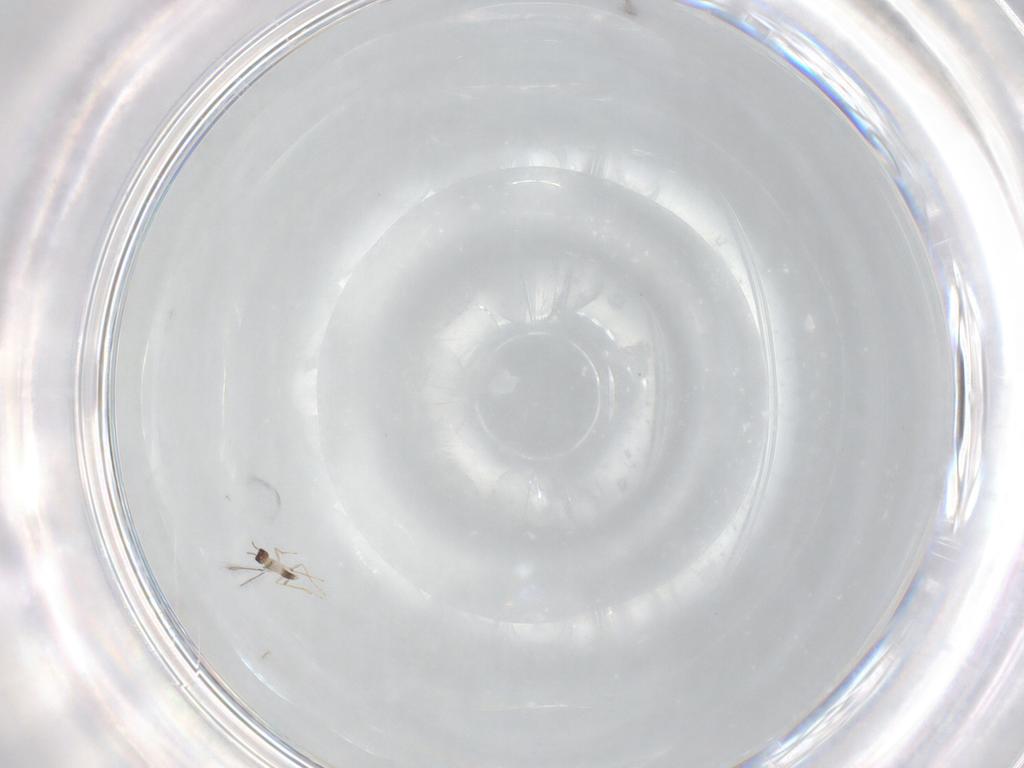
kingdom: Animalia
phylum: Arthropoda
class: Insecta
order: Hymenoptera
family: Mymaridae
